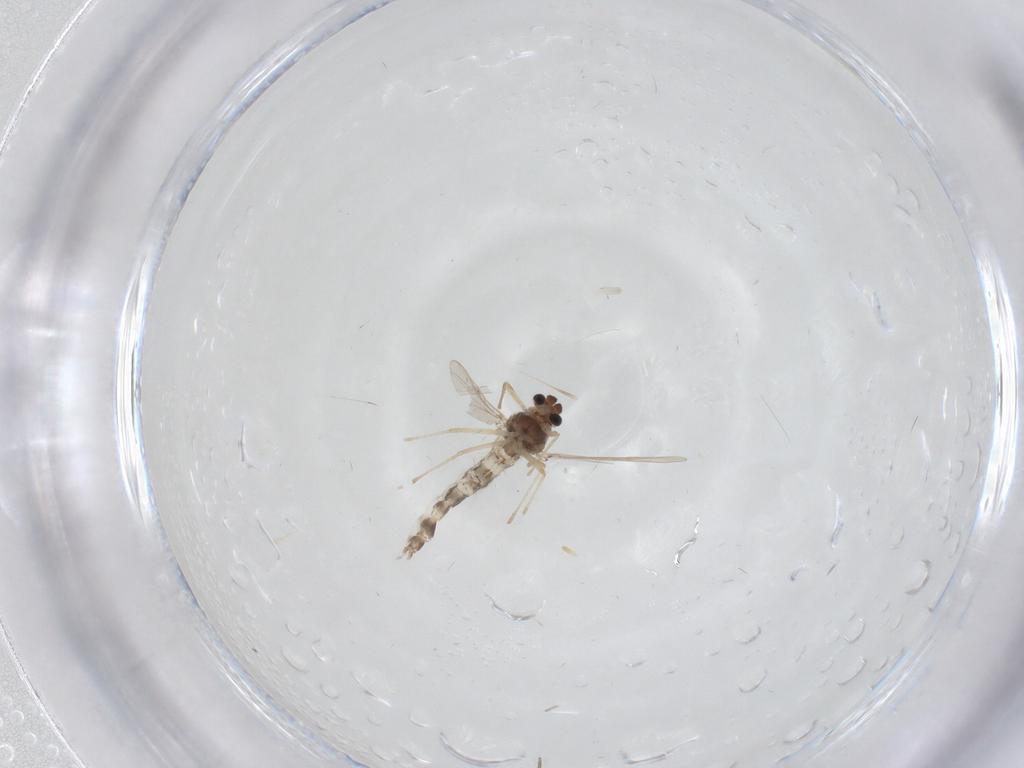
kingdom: Animalia
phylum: Arthropoda
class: Insecta
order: Diptera
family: Chironomidae
